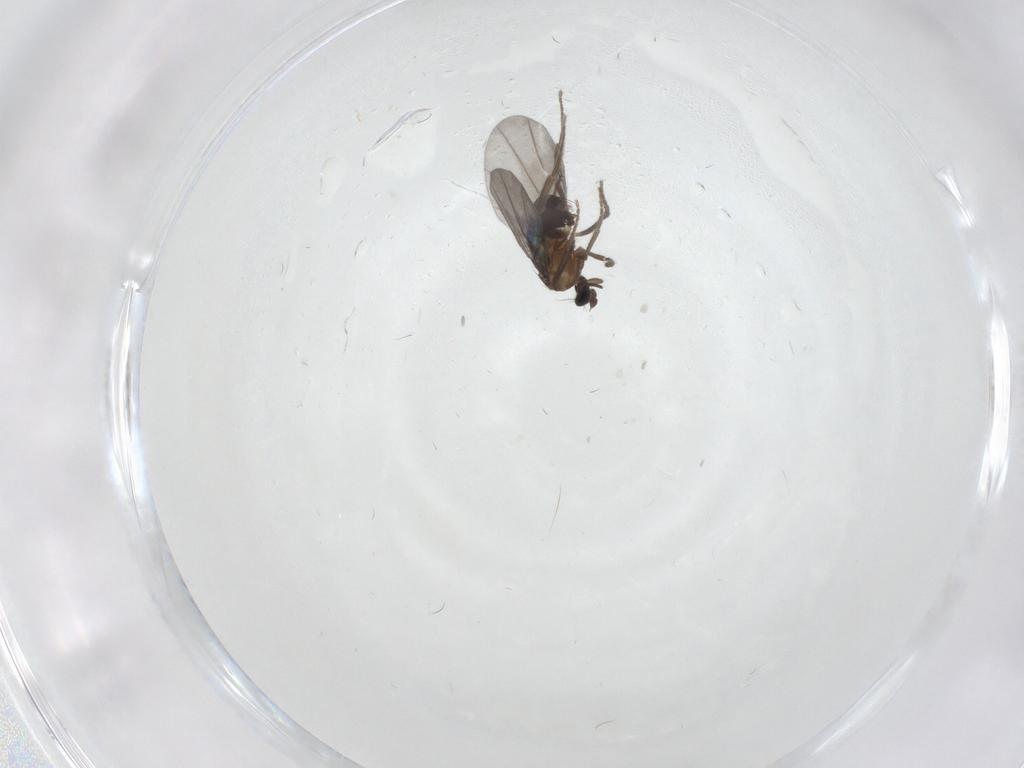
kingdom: Animalia
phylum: Arthropoda
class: Insecta
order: Diptera
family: Phoridae
